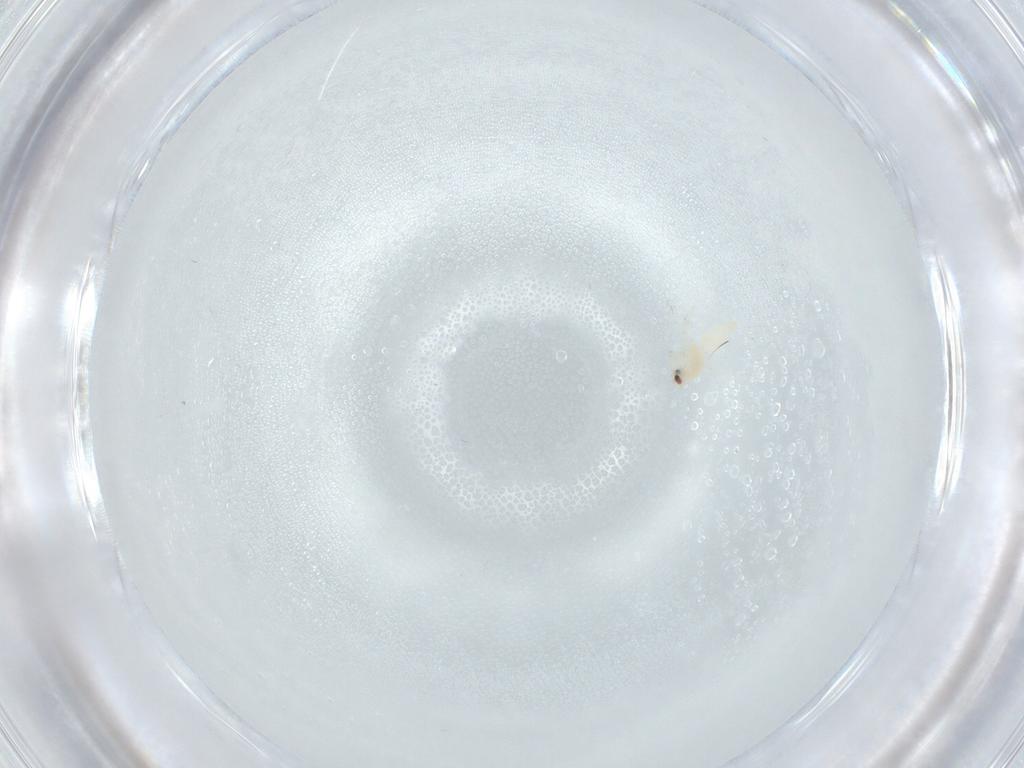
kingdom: Animalia
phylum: Arthropoda
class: Insecta
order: Diptera
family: Chironomidae
